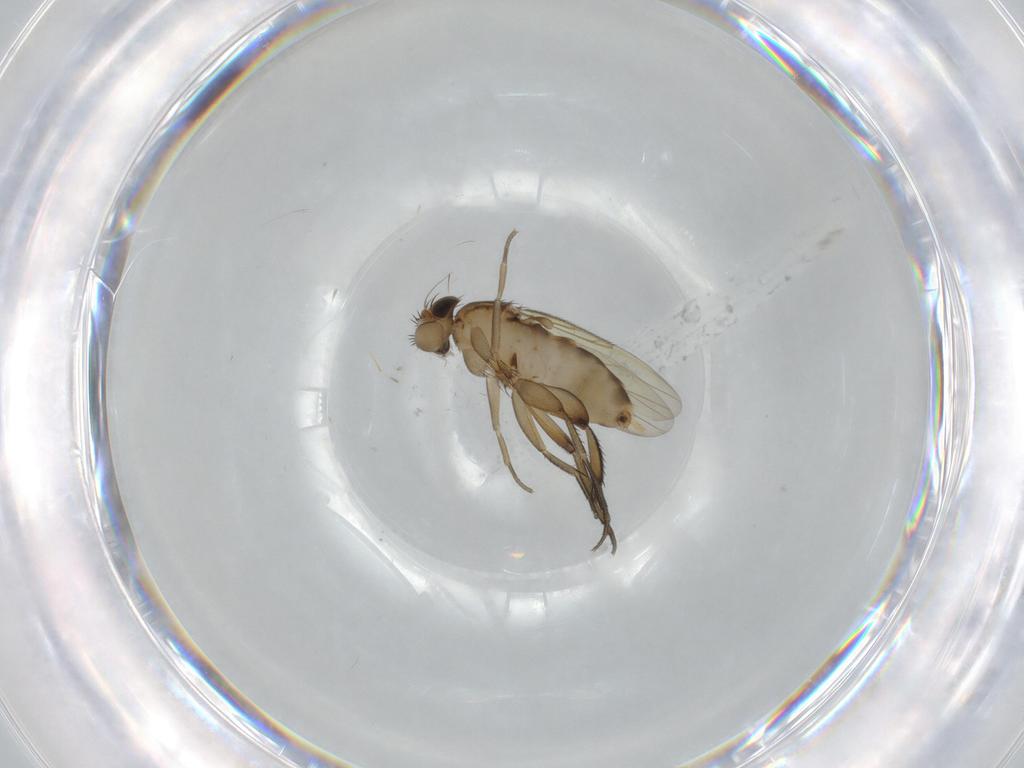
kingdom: Animalia
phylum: Arthropoda
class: Insecta
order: Diptera
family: Phoridae
